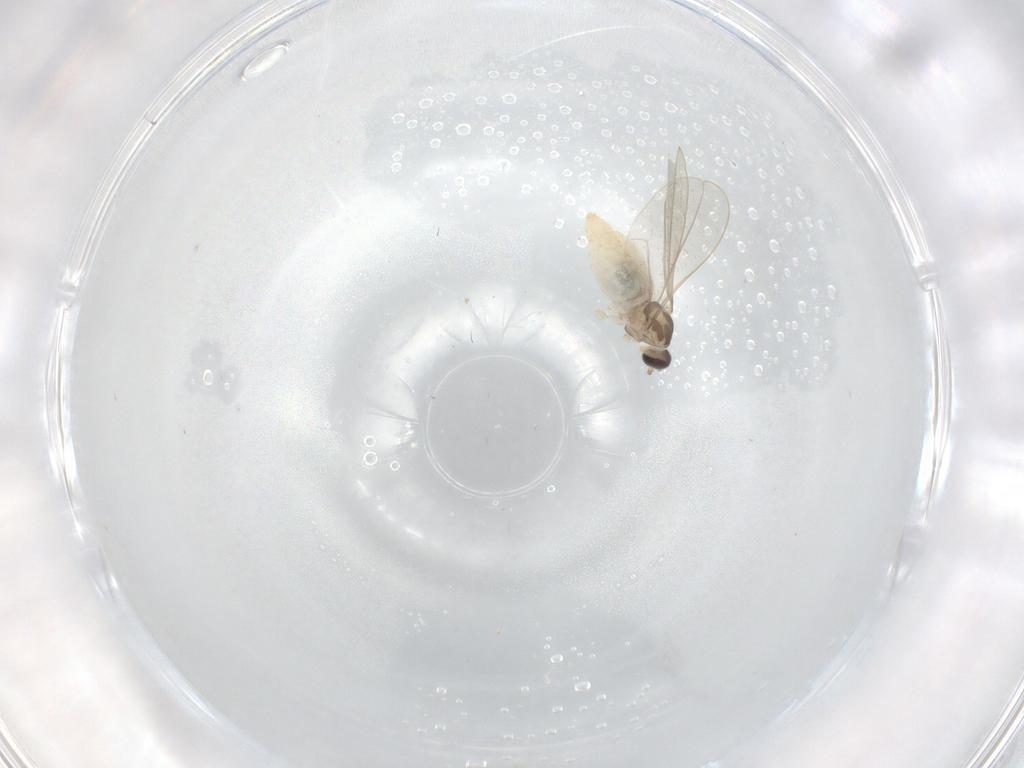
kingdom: Animalia
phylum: Arthropoda
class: Insecta
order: Diptera
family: Cecidomyiidae
